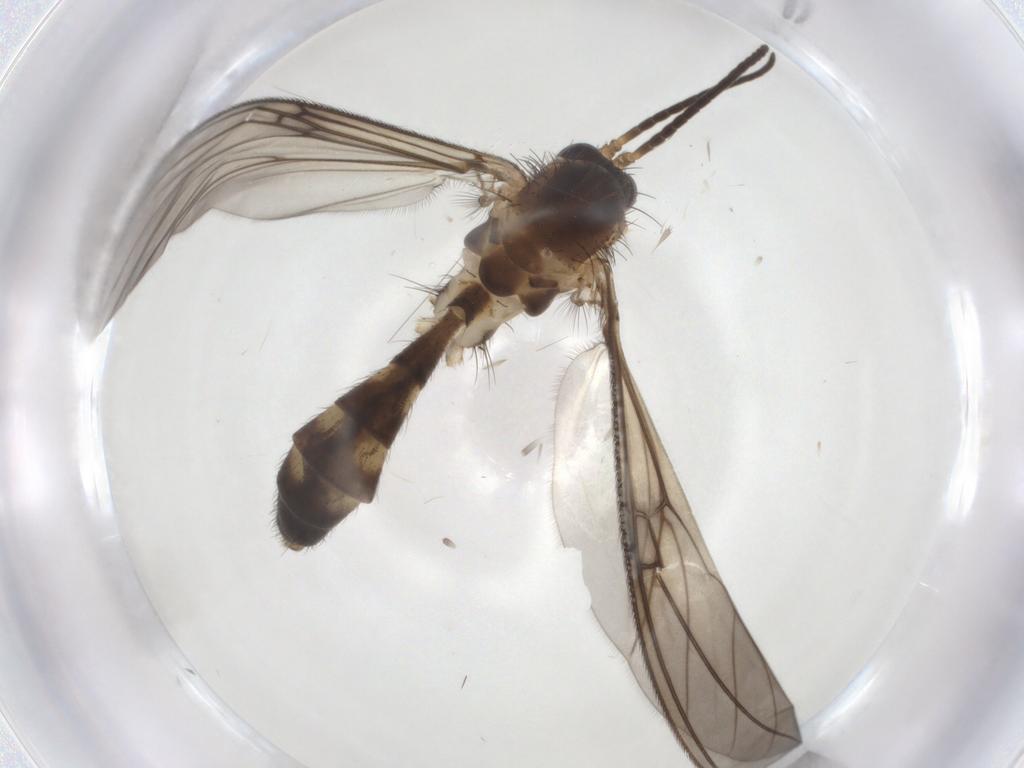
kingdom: Animalia
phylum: Arthropoda
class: Insecta
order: Diptera
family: Mycetophilidae
